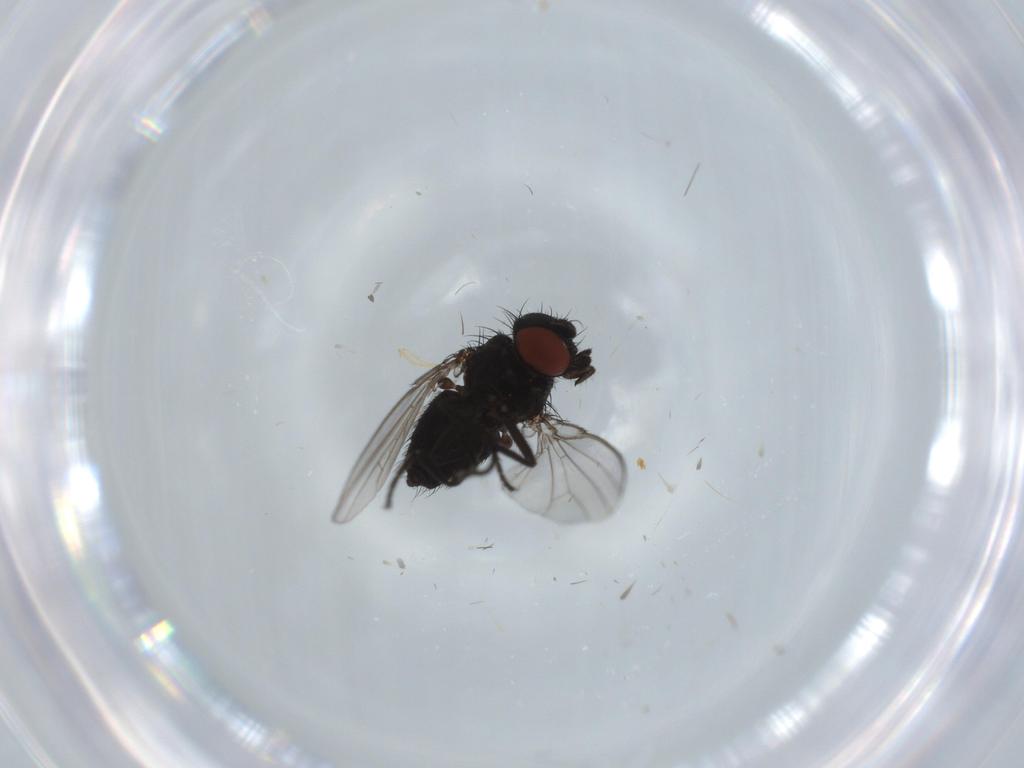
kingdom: Animalia
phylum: Arthropoda
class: Insecta
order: Diptera
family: Milichiidae
